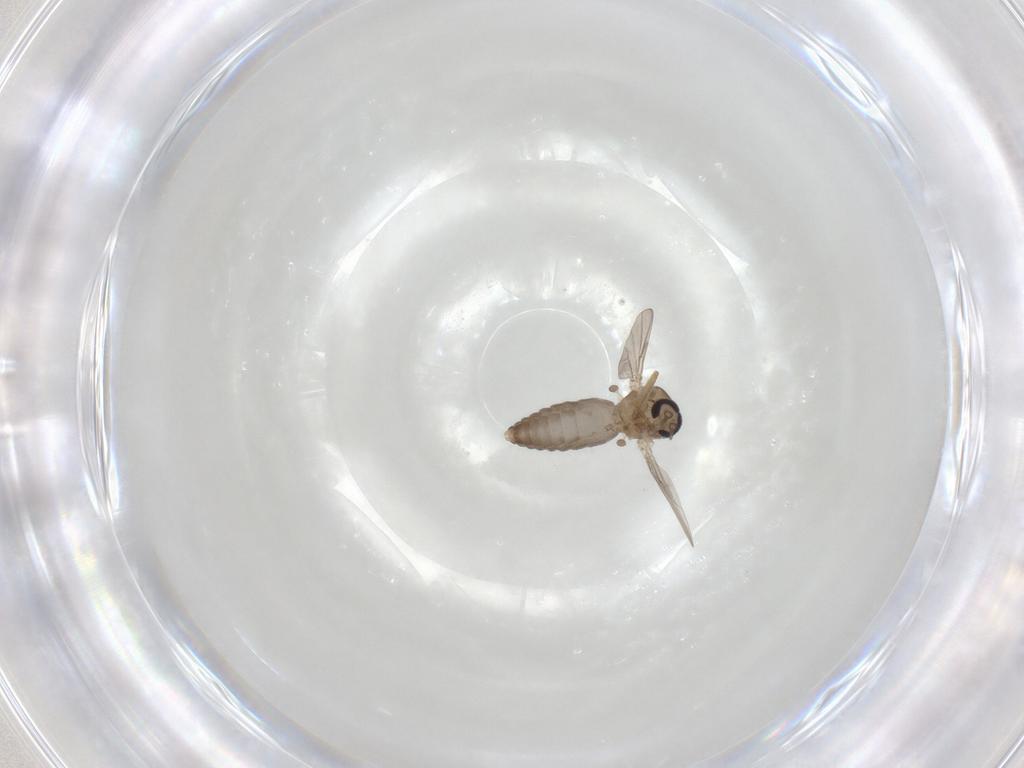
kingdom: Animalia
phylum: Arthropoda
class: Insecta
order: Diptera
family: Ceratopogonidae
